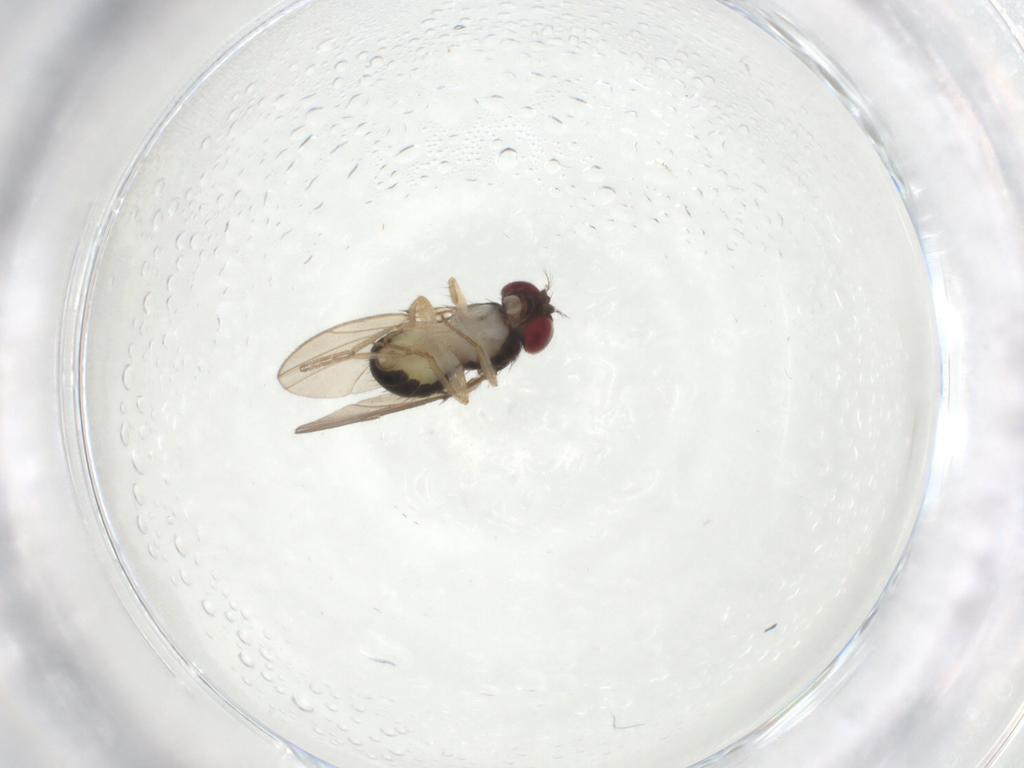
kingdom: Animalia
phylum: Arthropoda
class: Insecta
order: Diptera
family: Drosophilidae
